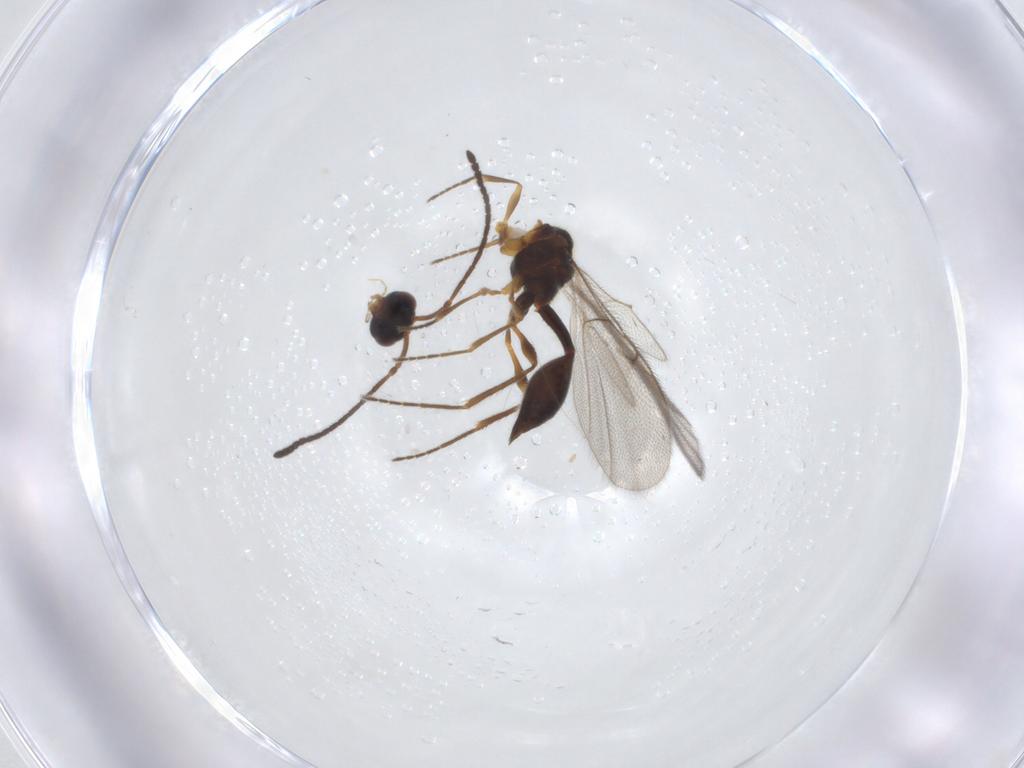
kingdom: Animalia
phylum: Arthropoda
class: Insecta
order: Hymenoptera
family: Diapriidae
